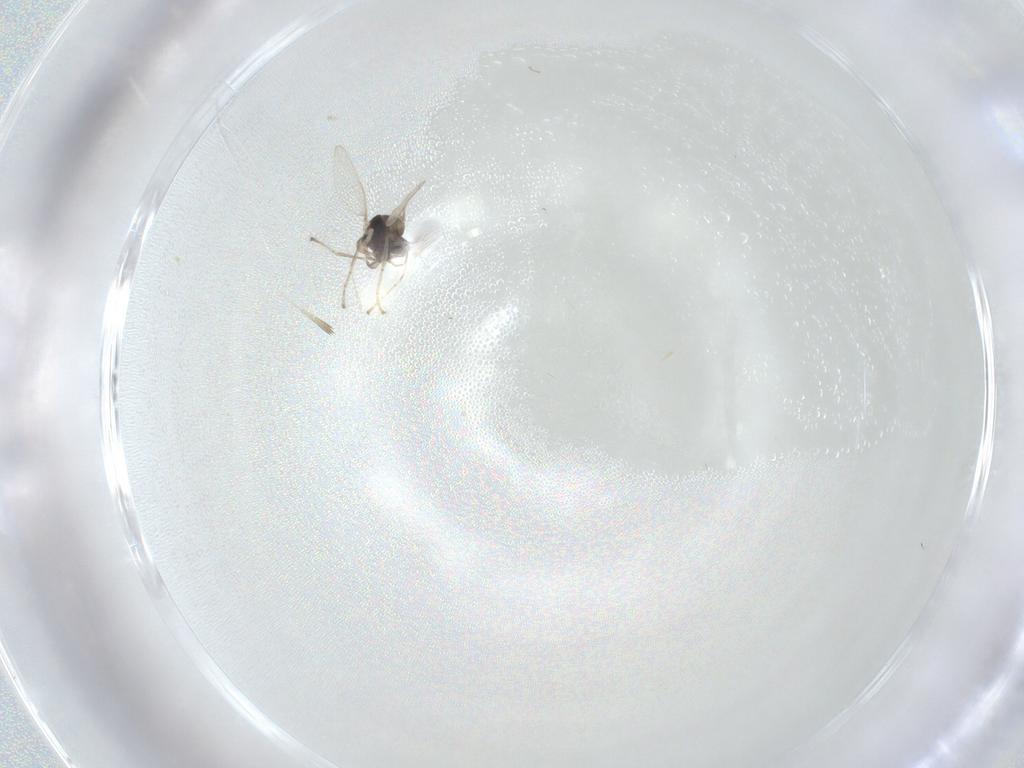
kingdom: Animalia
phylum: Arthropoda
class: Insecta
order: Diptera
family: Cecidomyiidae
